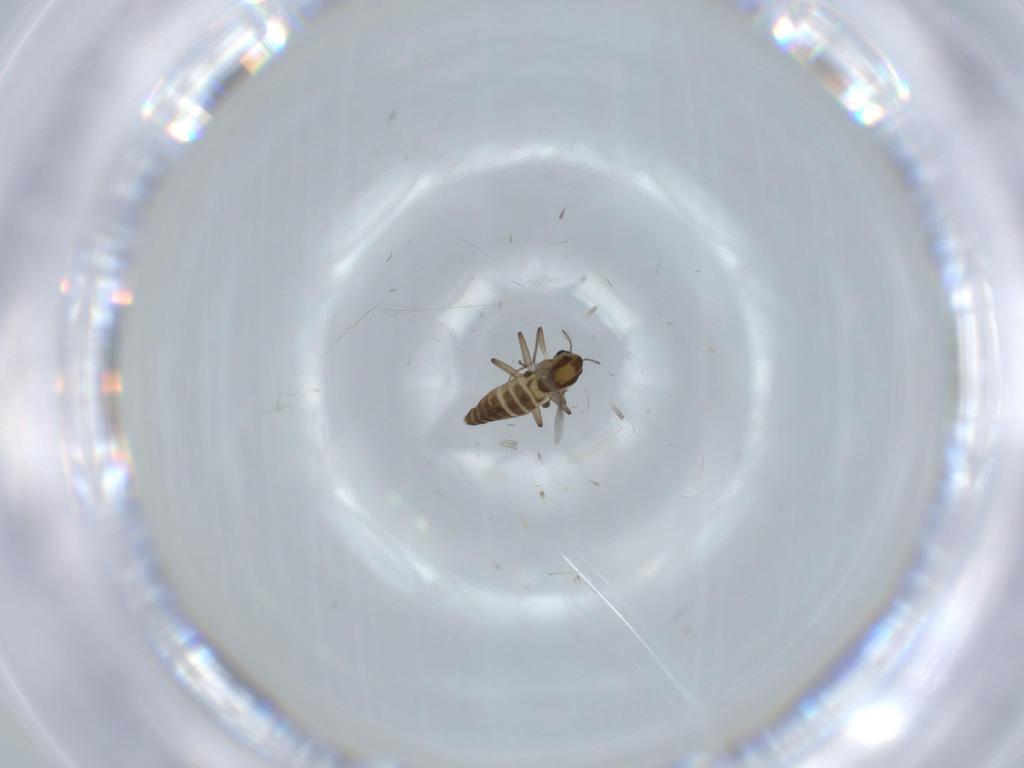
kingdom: Animalia
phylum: Arthropoda
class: Insecta
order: Diptera
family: Chironomidae
